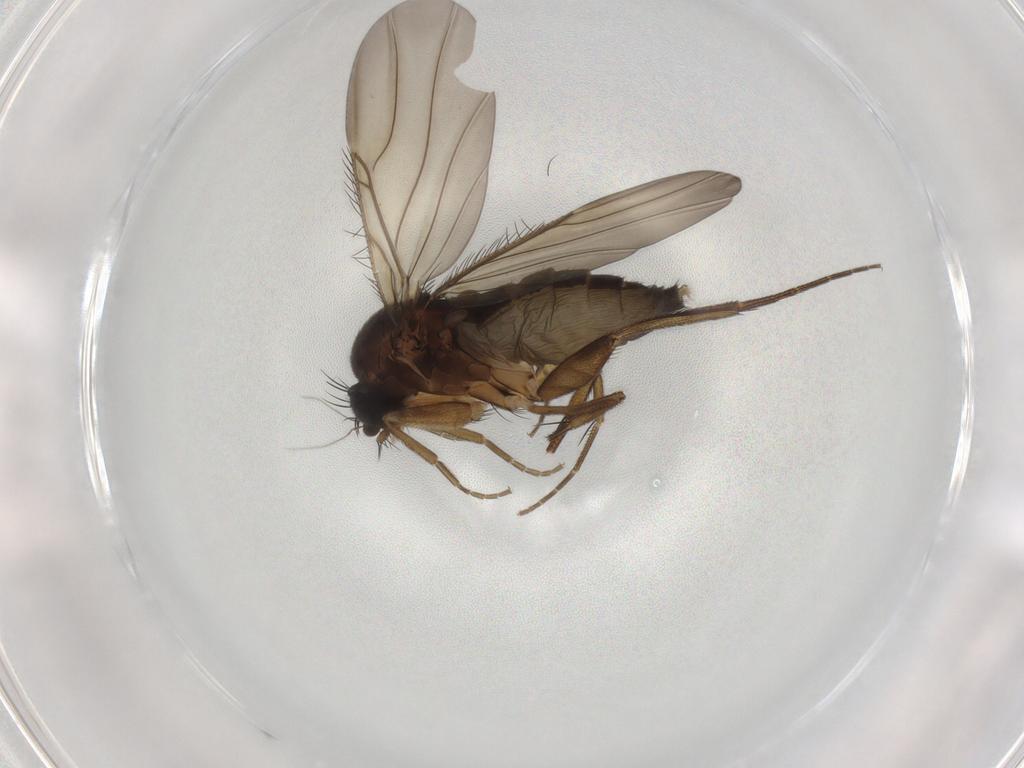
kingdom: Animalia
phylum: Arthropoda
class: Insecta
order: Diptera
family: Phoridae
